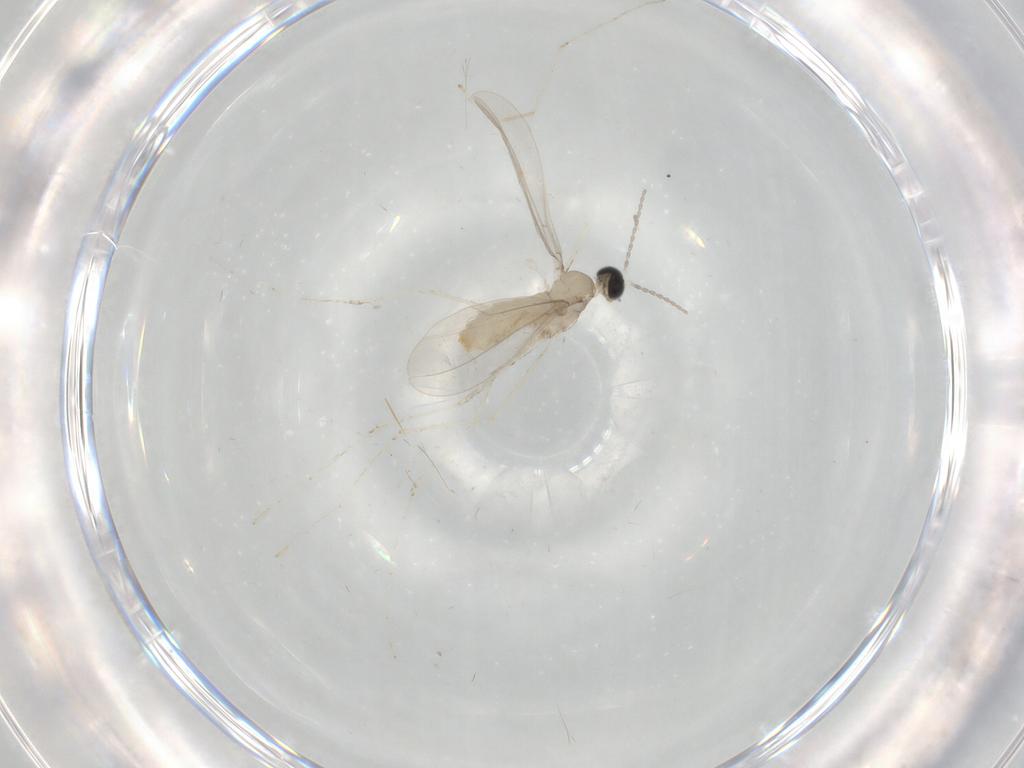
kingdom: Animalia
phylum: Arthropoda
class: Insecta
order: Diptera
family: Cecidomyiidae
